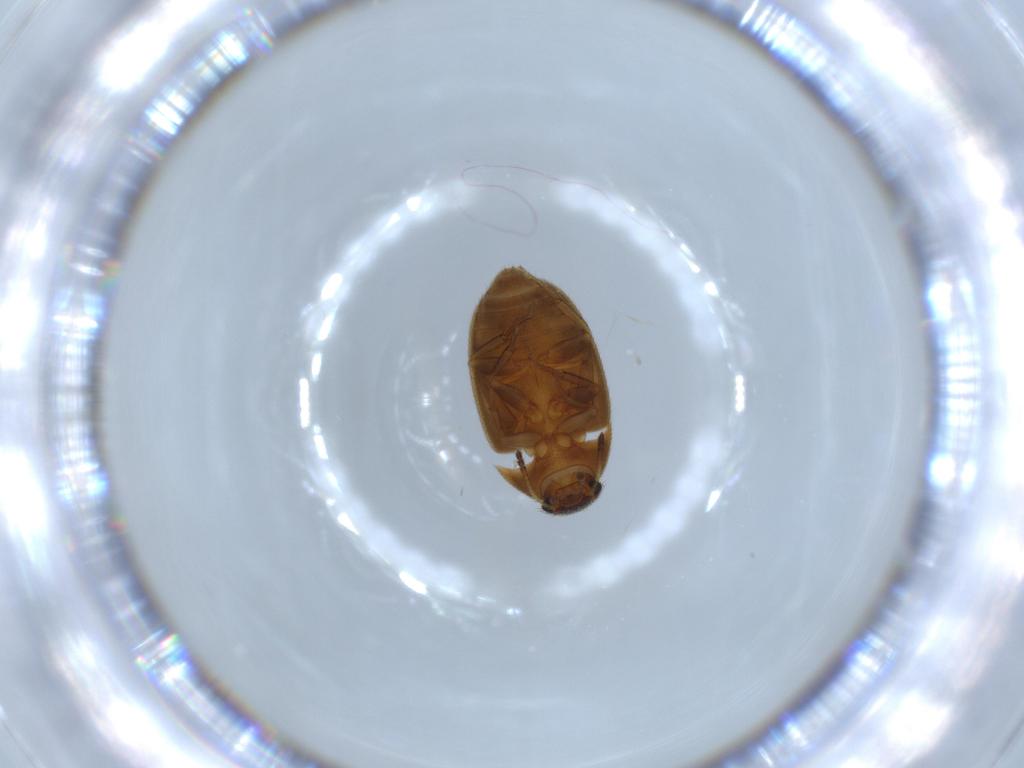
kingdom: Animalia
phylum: Arthropoda
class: Insecta
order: Coleoptera
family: Mycetophagidae
